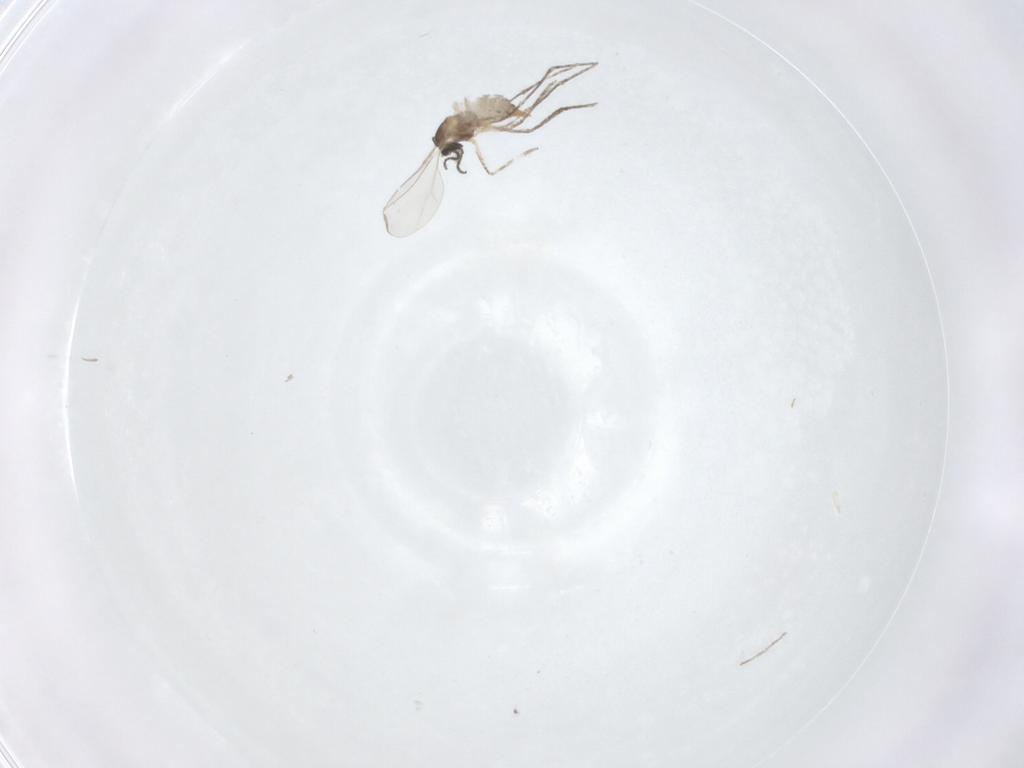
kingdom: Animalia
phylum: Arthropoda
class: Insecta
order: Diptera
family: Cecidomyiidae
